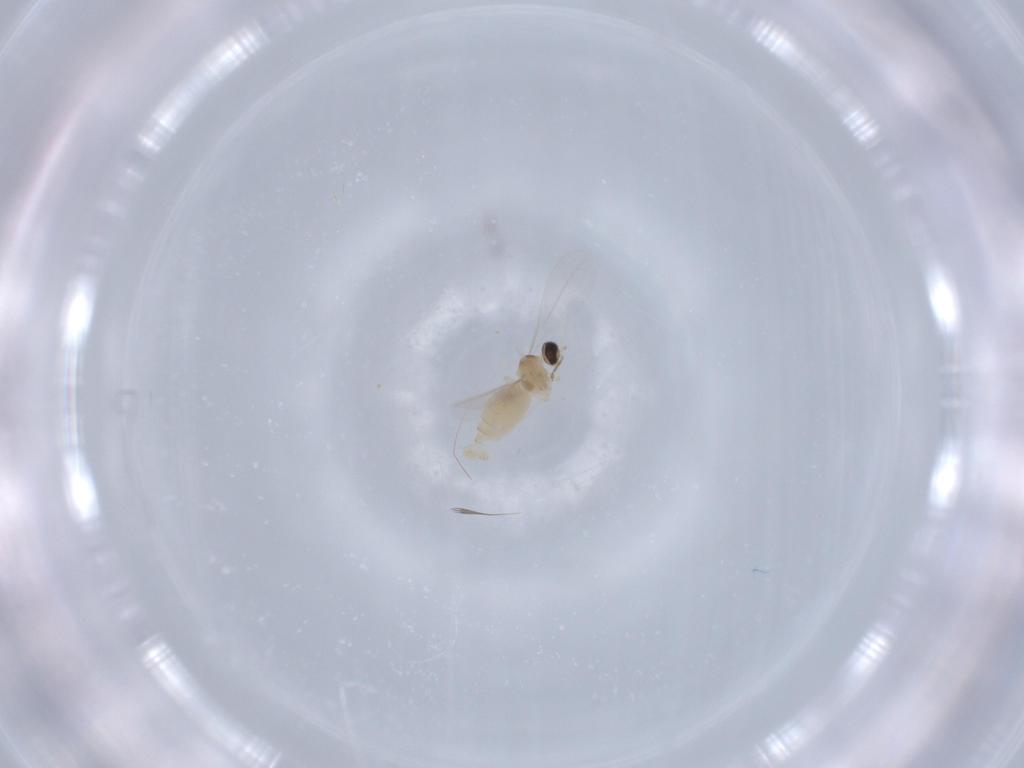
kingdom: Animalia
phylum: Arthropoda
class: Insecta
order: Diptera
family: Cecidomyiidae
